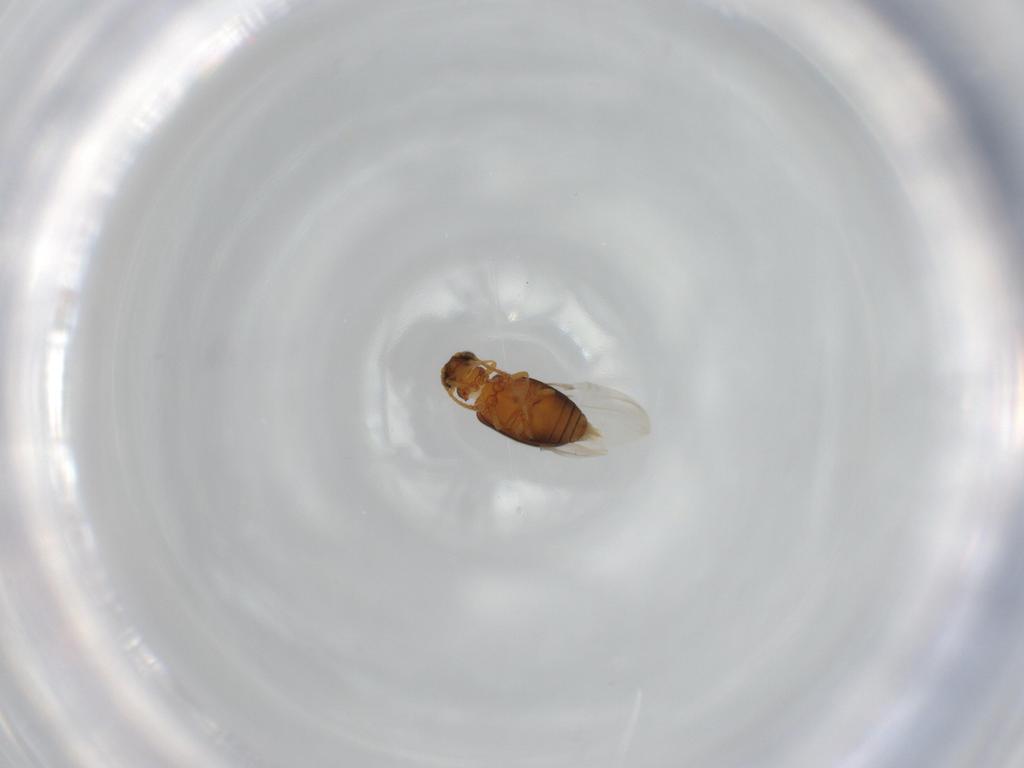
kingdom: Animalia
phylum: Arthropoda
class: Insecta
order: Coleoptera
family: Aderidae
